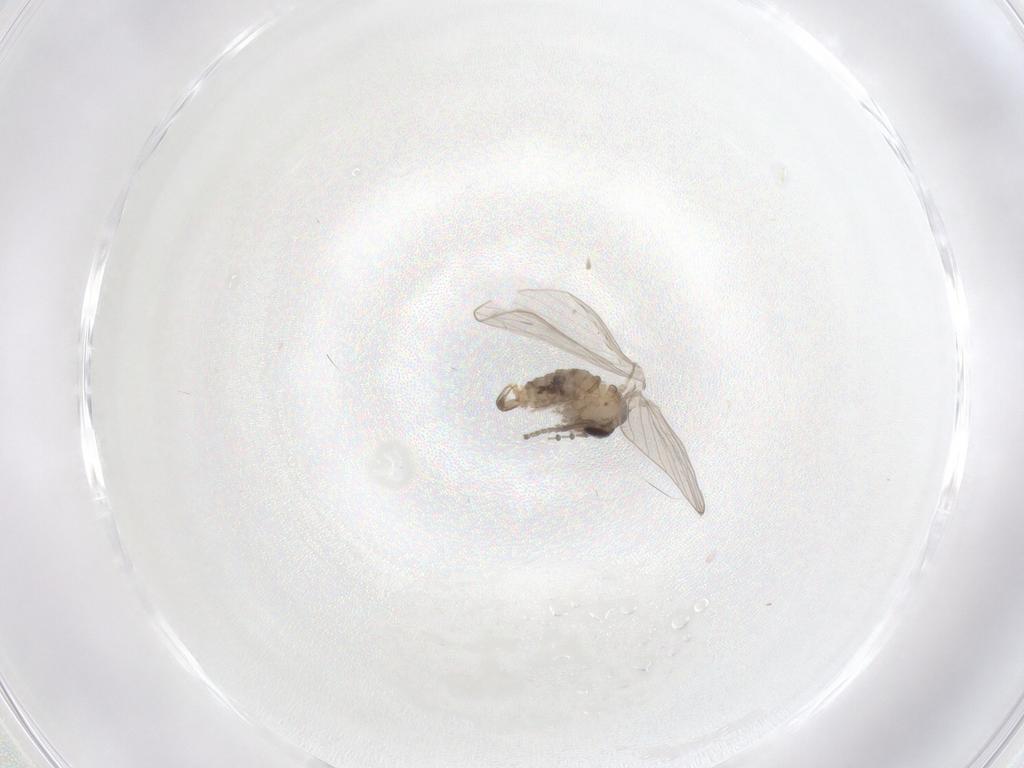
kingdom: Animalia
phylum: Arthropoda
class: Insecta
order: Diptera
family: Psychodidae
